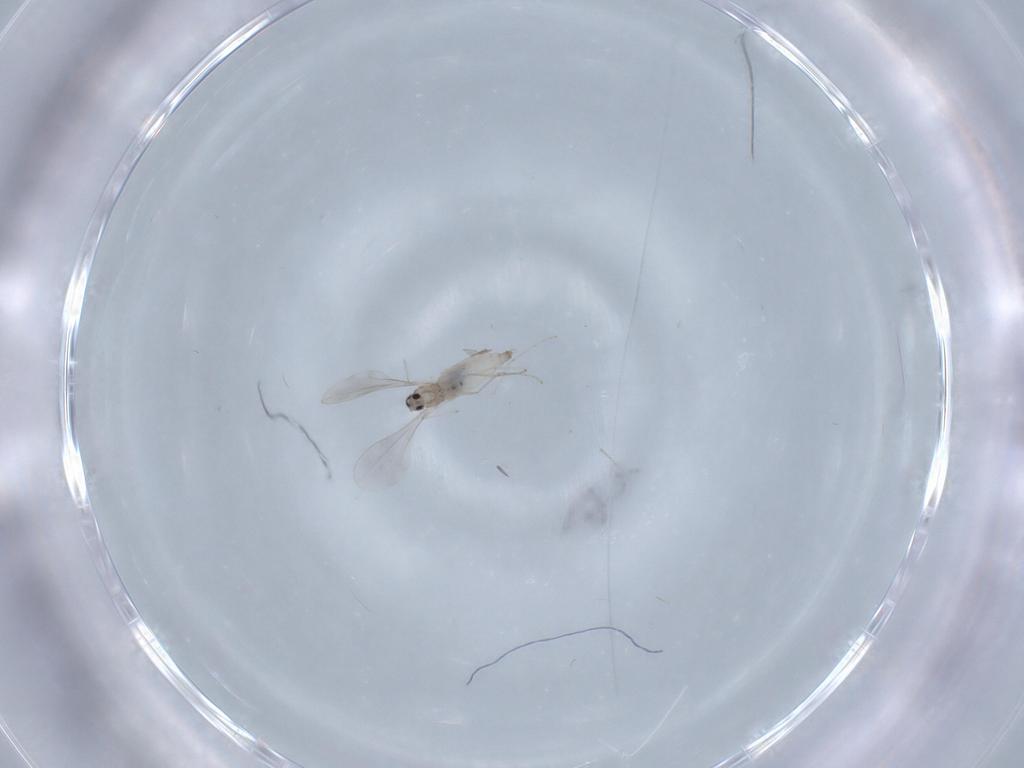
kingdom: Animalia
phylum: Arthropoda
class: Insecta
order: Diptera
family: Cecidomyiidae
